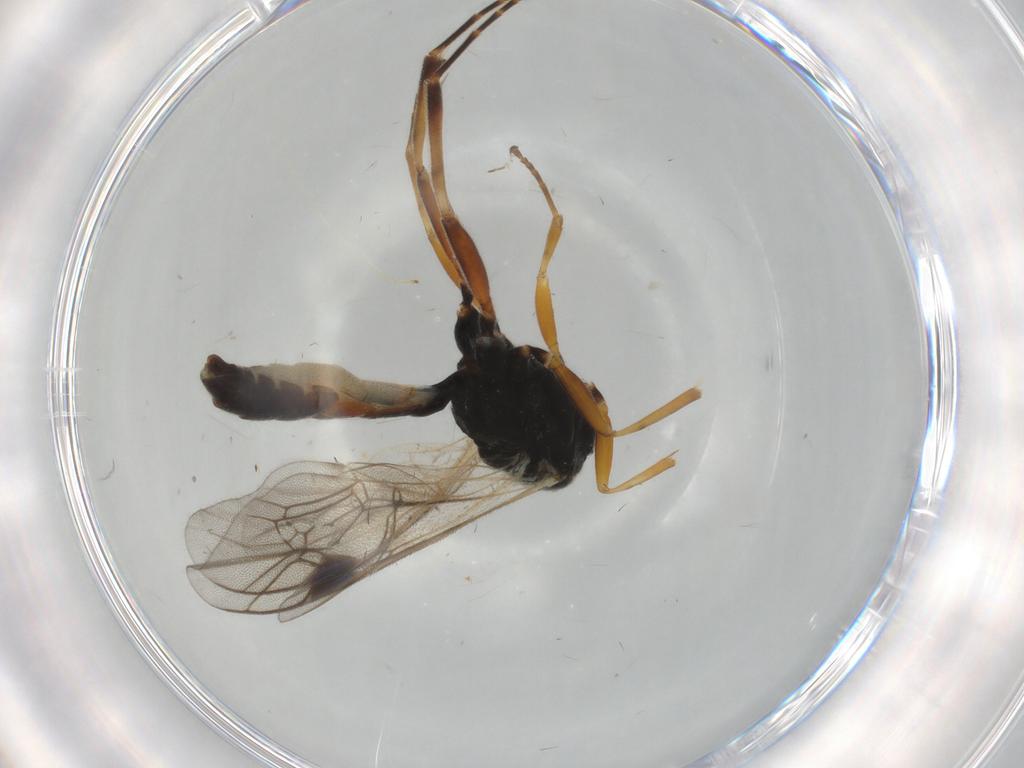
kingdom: Animalia
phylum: Arthropoda
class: Insecta
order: Hymenoptera
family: Ichneumonidae
